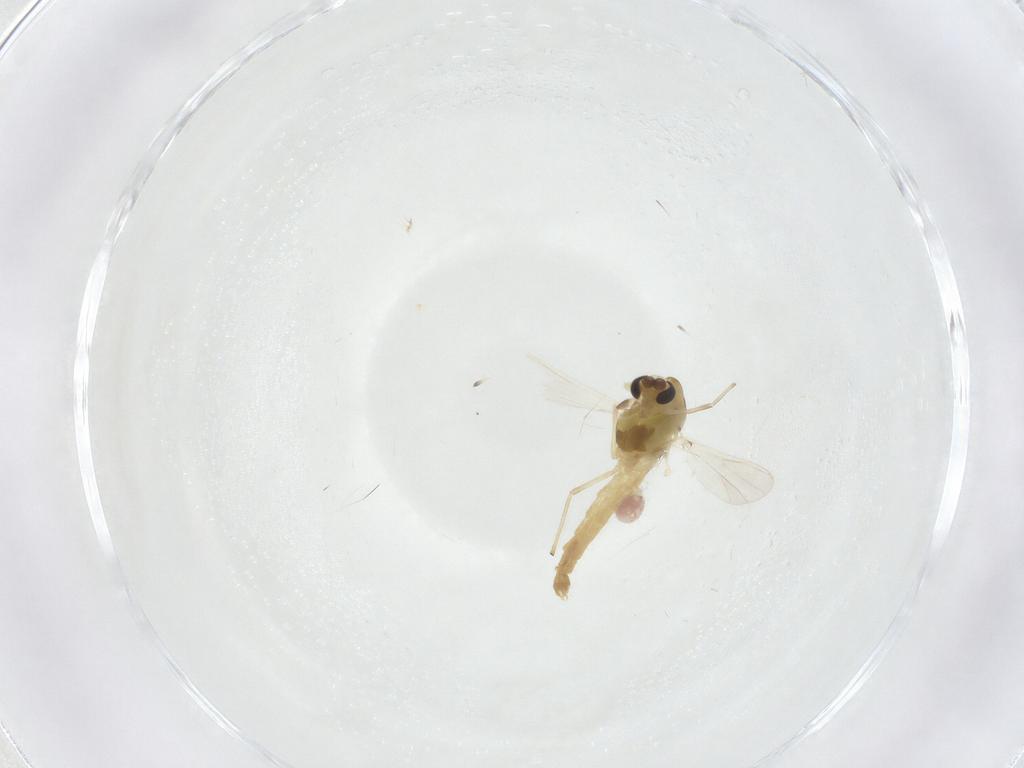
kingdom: Animalia
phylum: Arthropoda
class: Insecta
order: Diptera
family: Chironomidae
